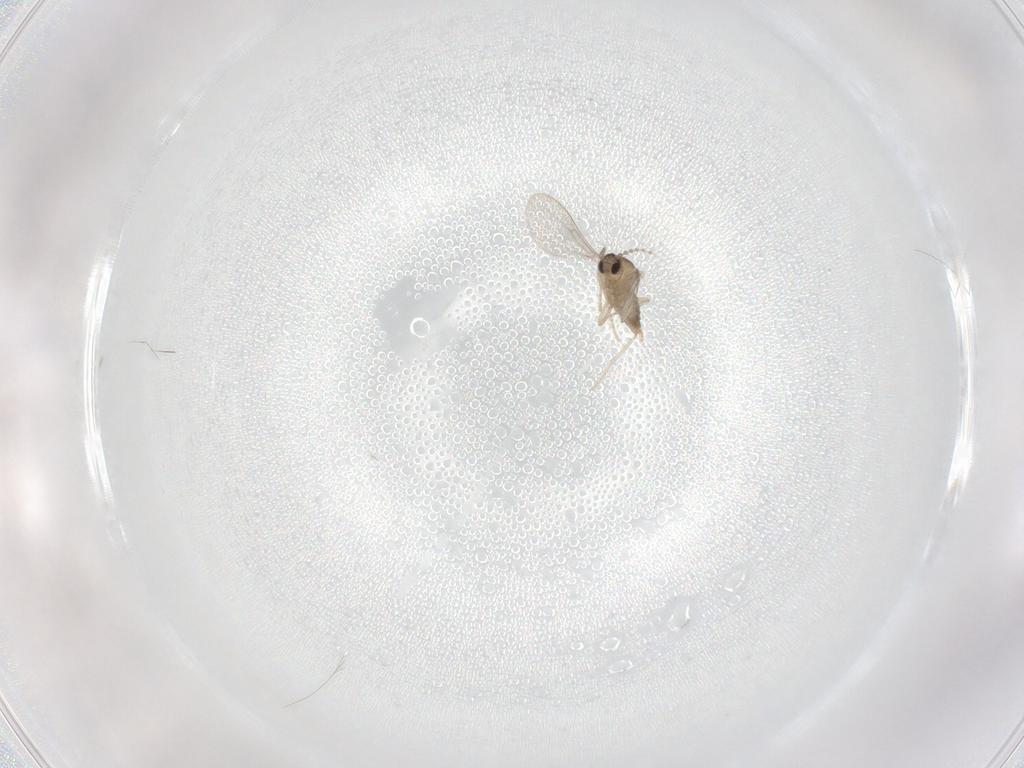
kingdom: Animalia
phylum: Arthropoda
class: Insecta
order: Diptera
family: Cecidomyiidae
